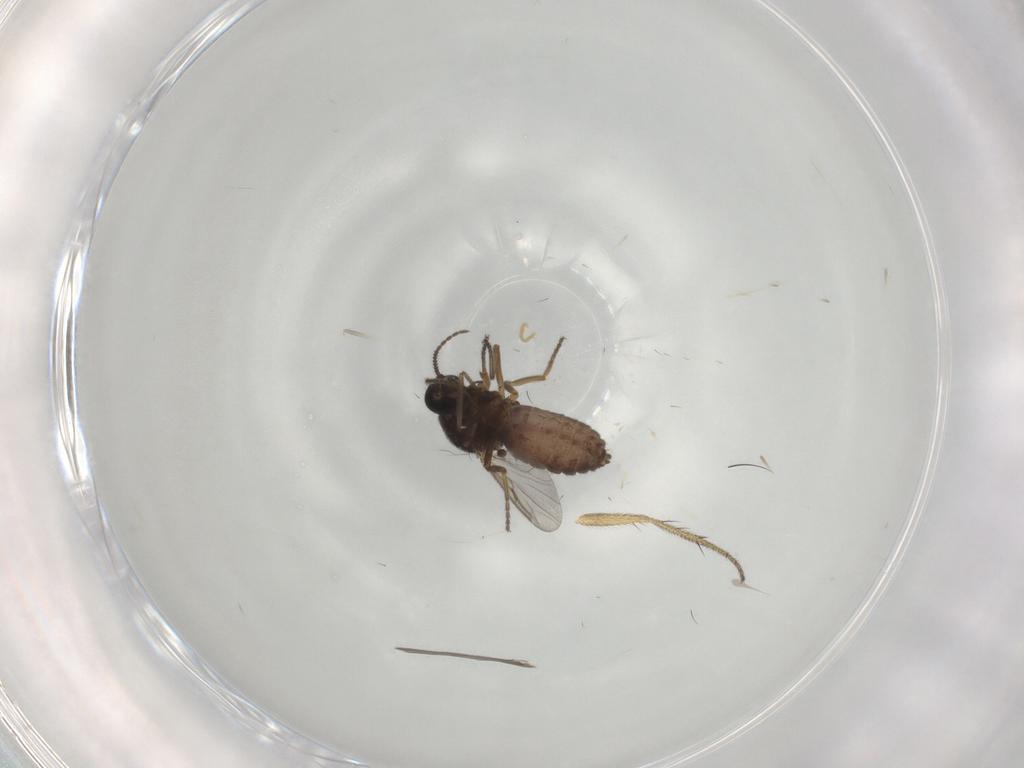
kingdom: Animalia
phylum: Arthropoda
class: Insecta
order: Diptera
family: Ceratopogonidae
